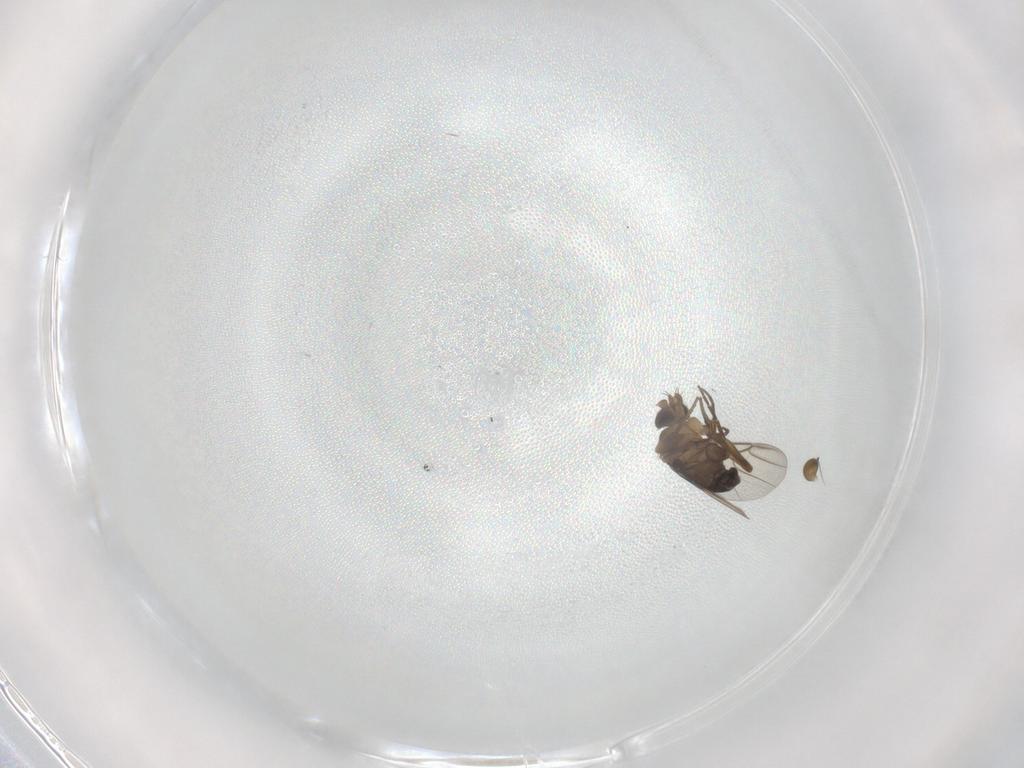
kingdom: Animalia
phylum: Arthropoda
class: Insecta
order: Diptera
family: Phoridae
